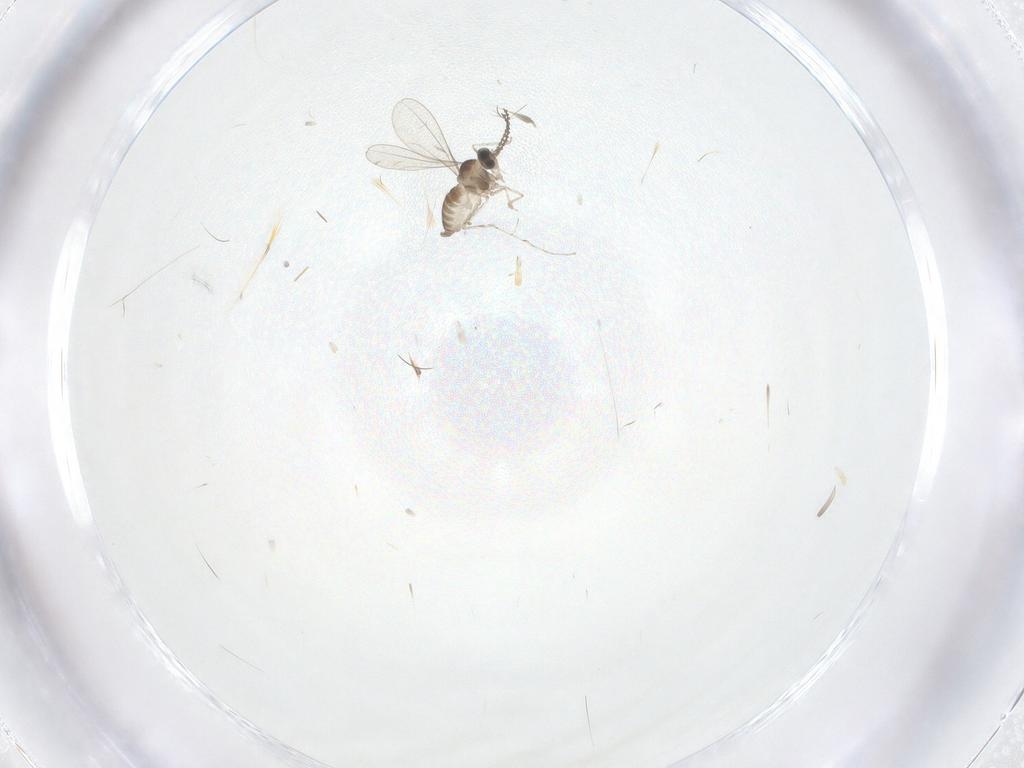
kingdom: Animalia
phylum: Arthropoda
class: Insecta
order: Diptera
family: Cecidomyiidae
